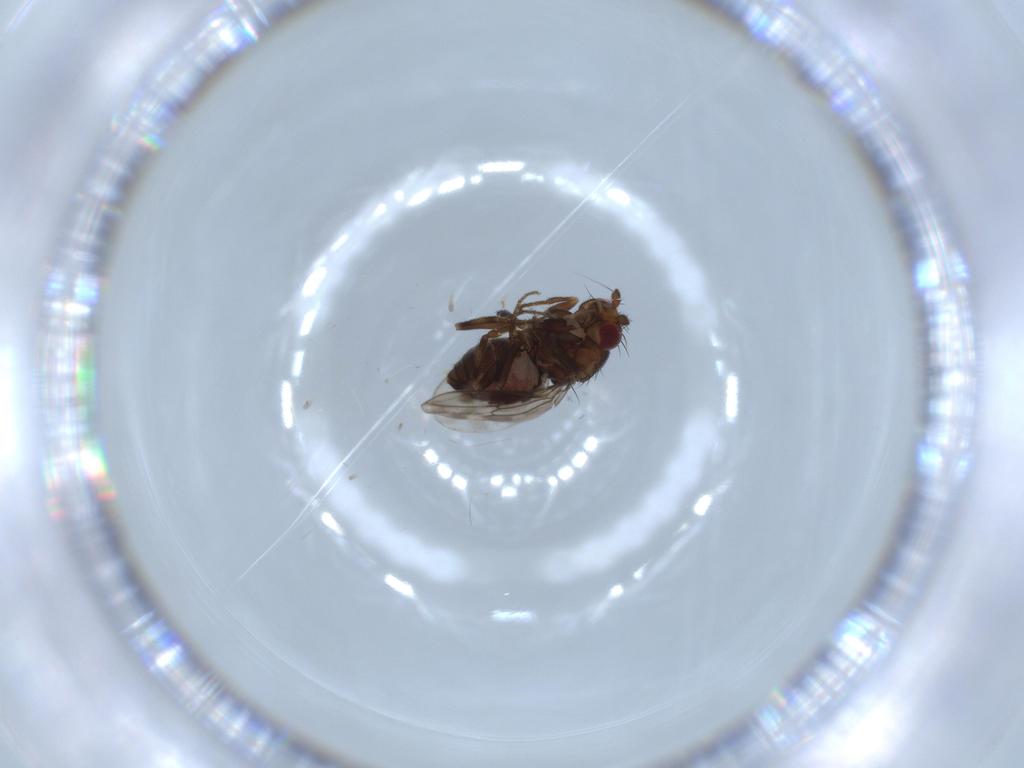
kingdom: Animalia
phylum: Arthropoda
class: Insecta
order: Diptera
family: Sphaeroceridae
